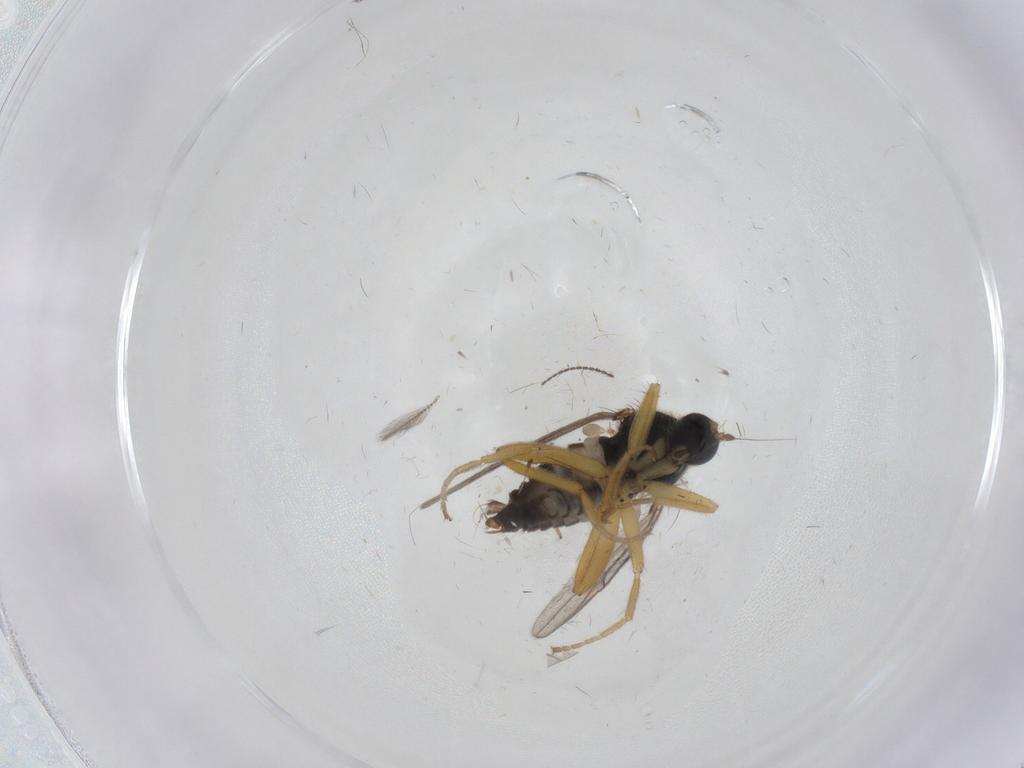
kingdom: Animalia
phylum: Arthropoda
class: Insecta
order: Diptera
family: Hybotidae
